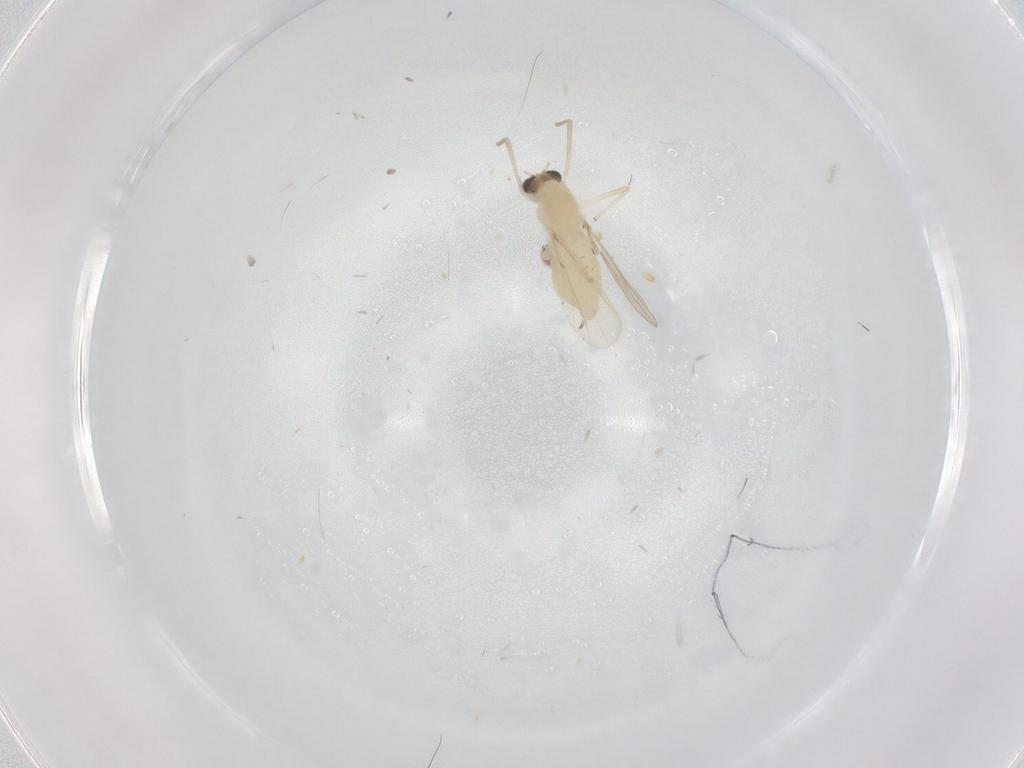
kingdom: Animalia
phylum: Arthropoda
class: Insecta
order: Diptera
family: Chironomidae
